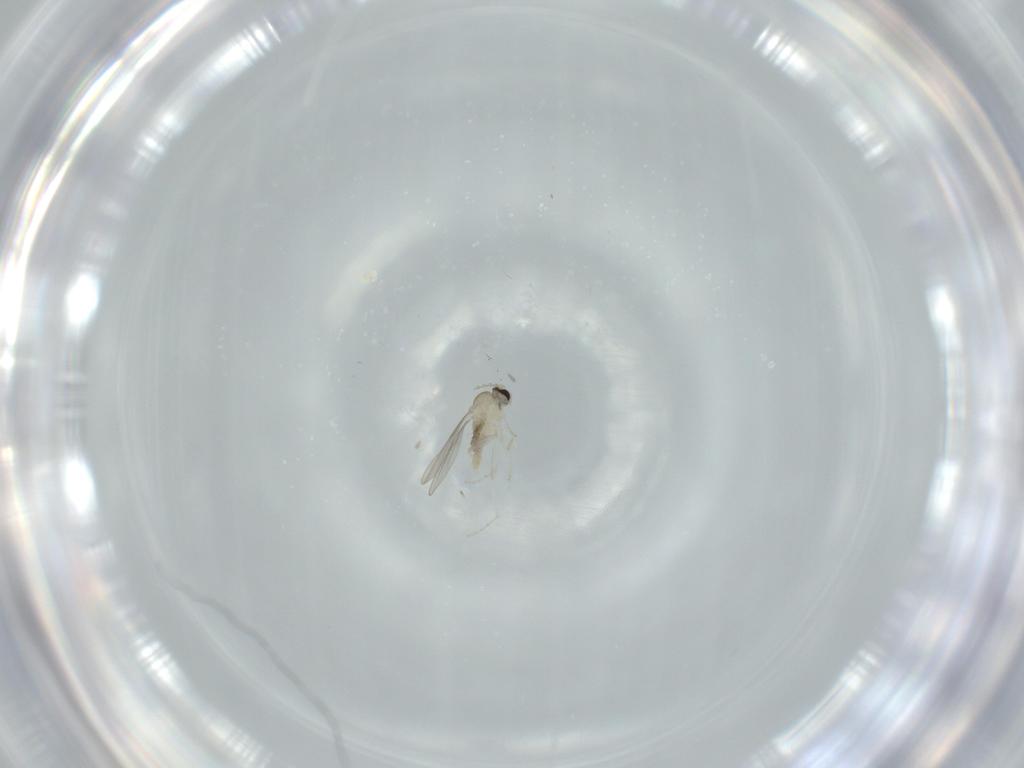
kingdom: Animalia
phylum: Arthropoda
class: Insecta
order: Diptera
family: Cecidomyiidae
